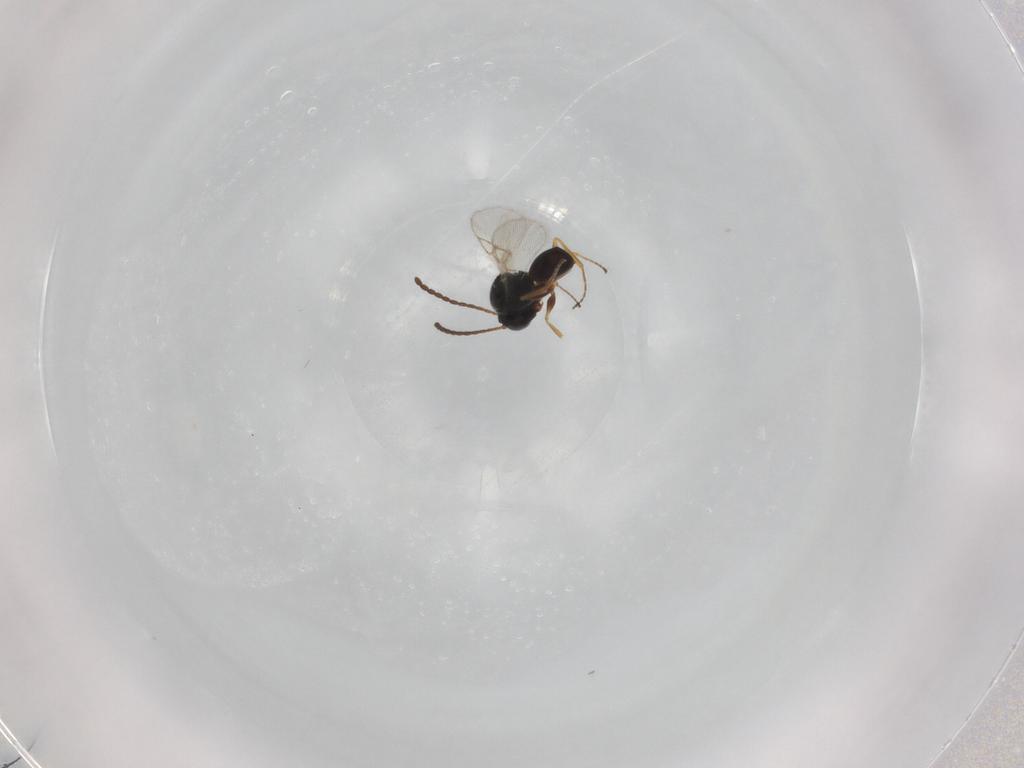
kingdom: Animalia
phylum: Arthropoda
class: Insecta
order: Hymenoptera
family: Figitidae
